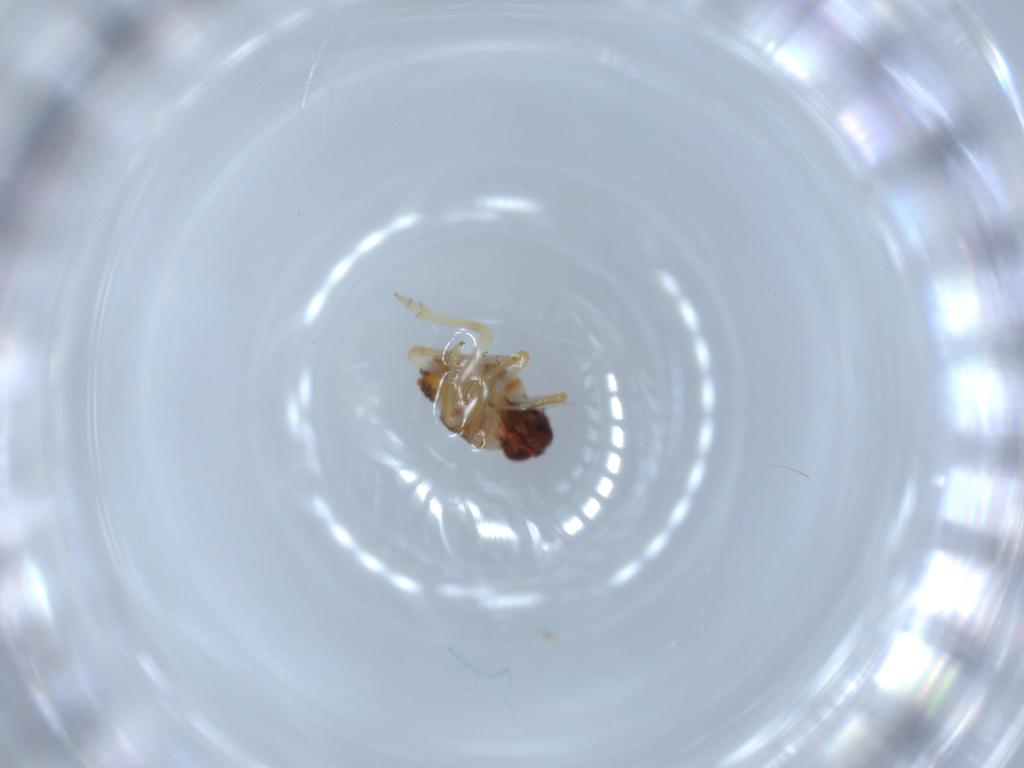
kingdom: Animalia
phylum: Arthropoda
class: Insecta
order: Hemiptera
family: Issidae
